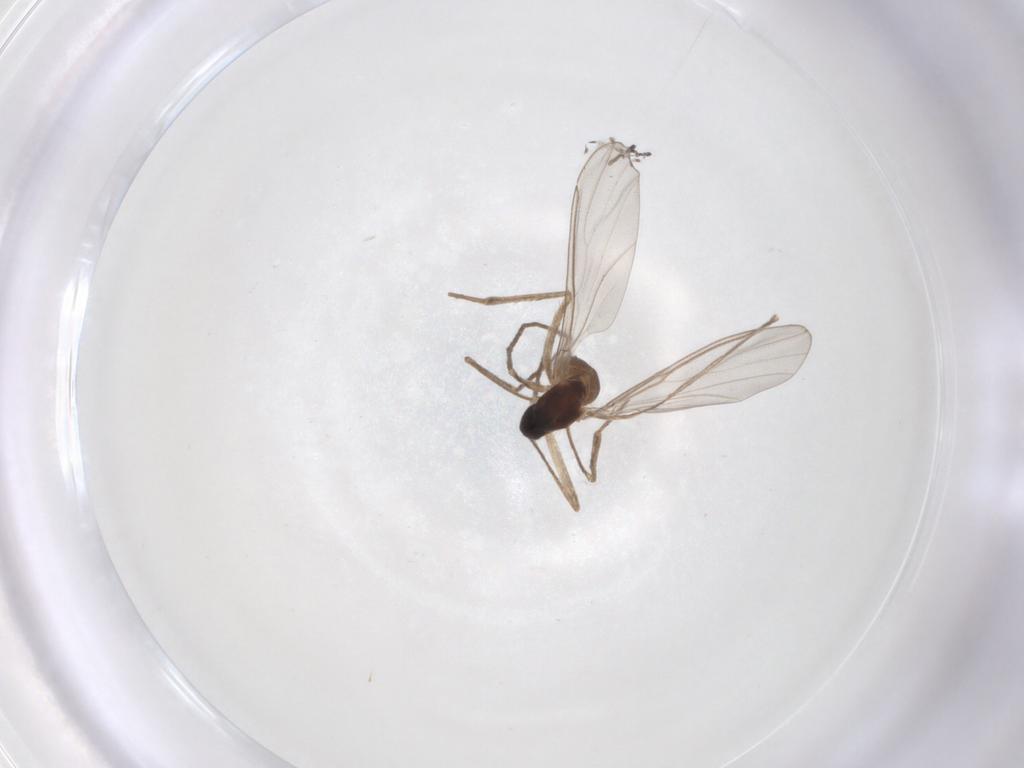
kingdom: Animalia
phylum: Arthropoda
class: Insecta
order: Diptera
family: Cecidomyiidae
